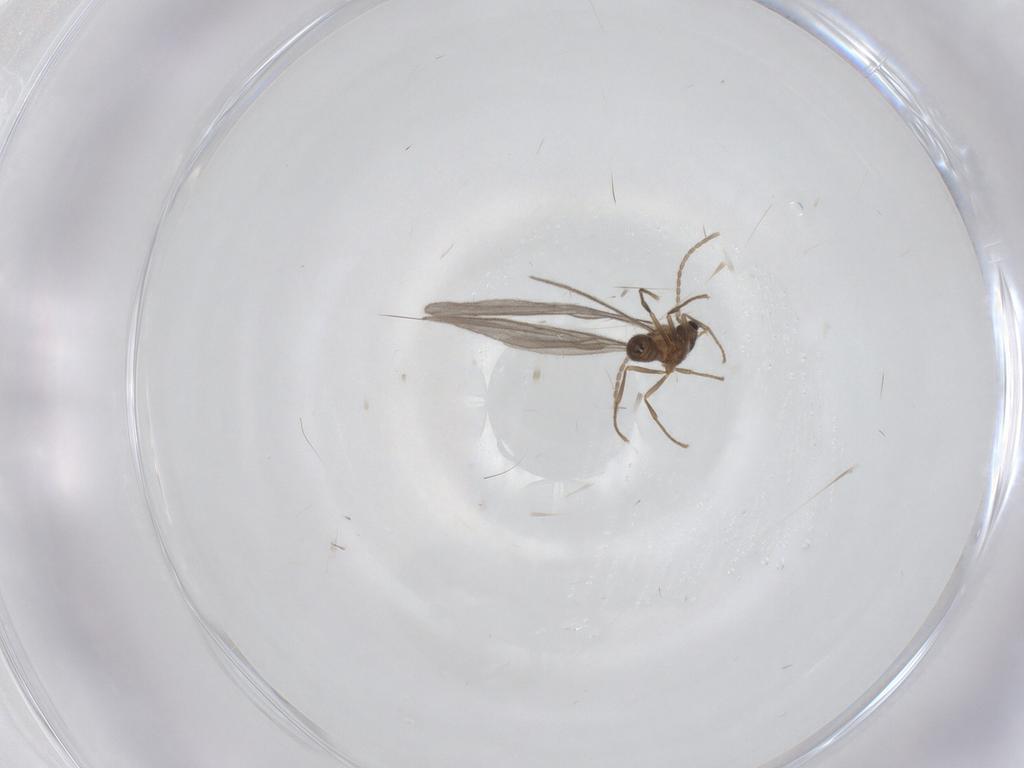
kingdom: Animalia
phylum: Arthropoda
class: Insecta
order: Hymenoptera
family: Formicidae
